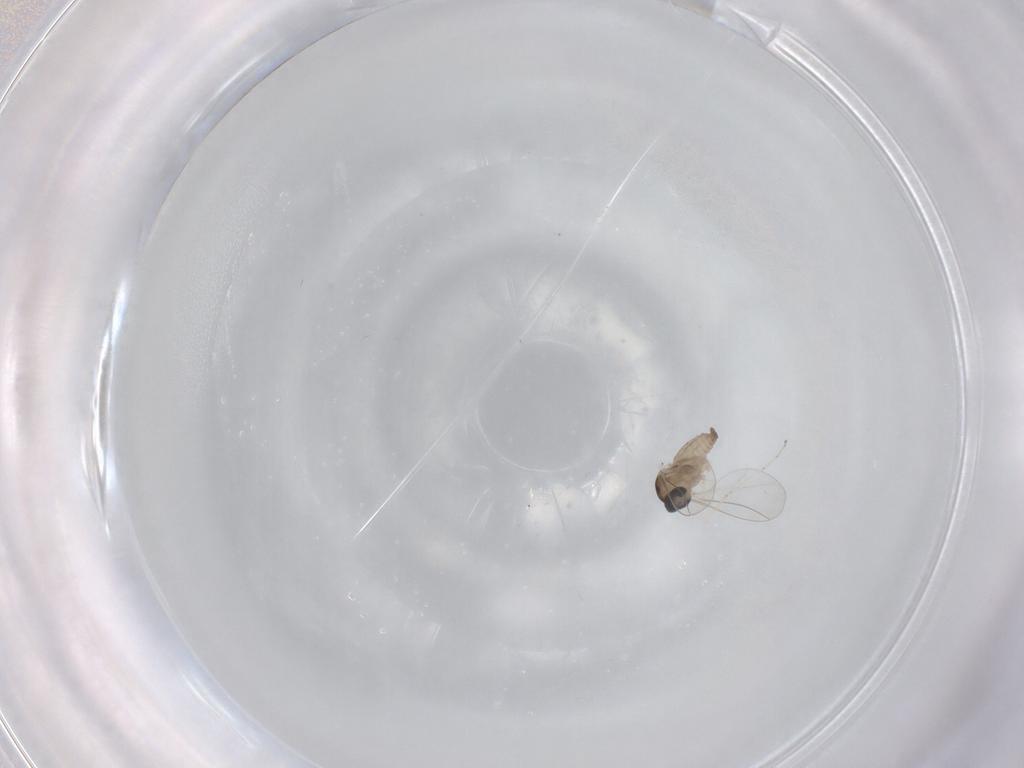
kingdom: Animalia
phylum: Arthropoda
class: Insecta
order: Diptera
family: Cecidomyiidae
